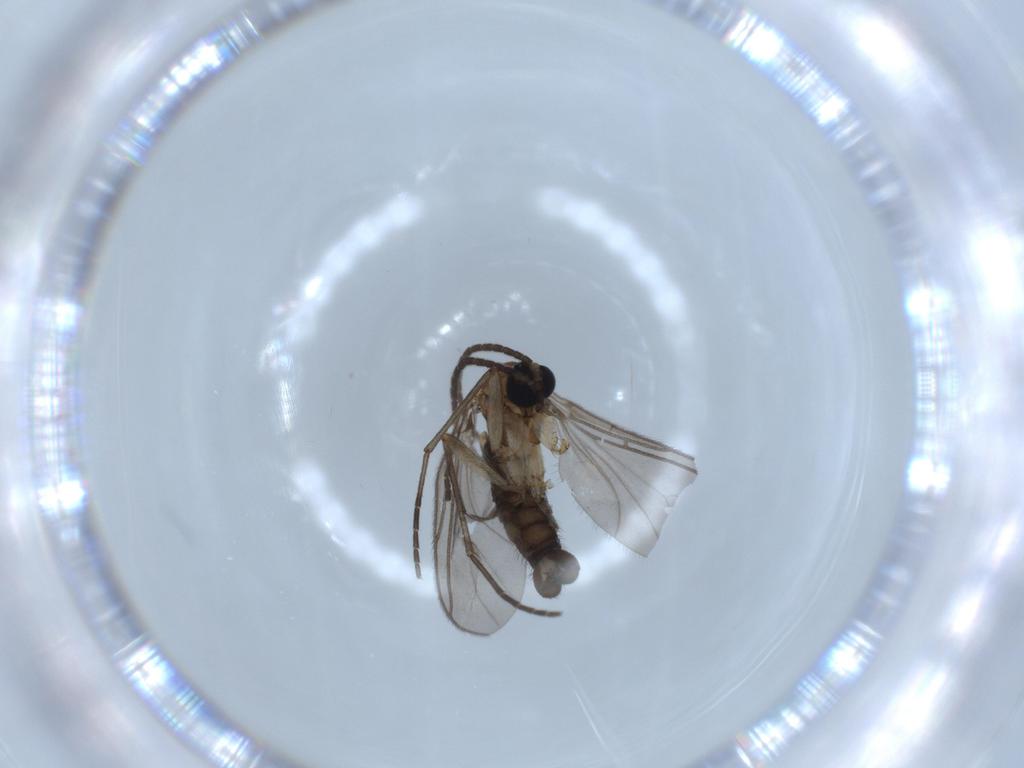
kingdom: Animalia
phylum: Arthropoda
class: Insecta
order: Diptera
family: Sciaridae
